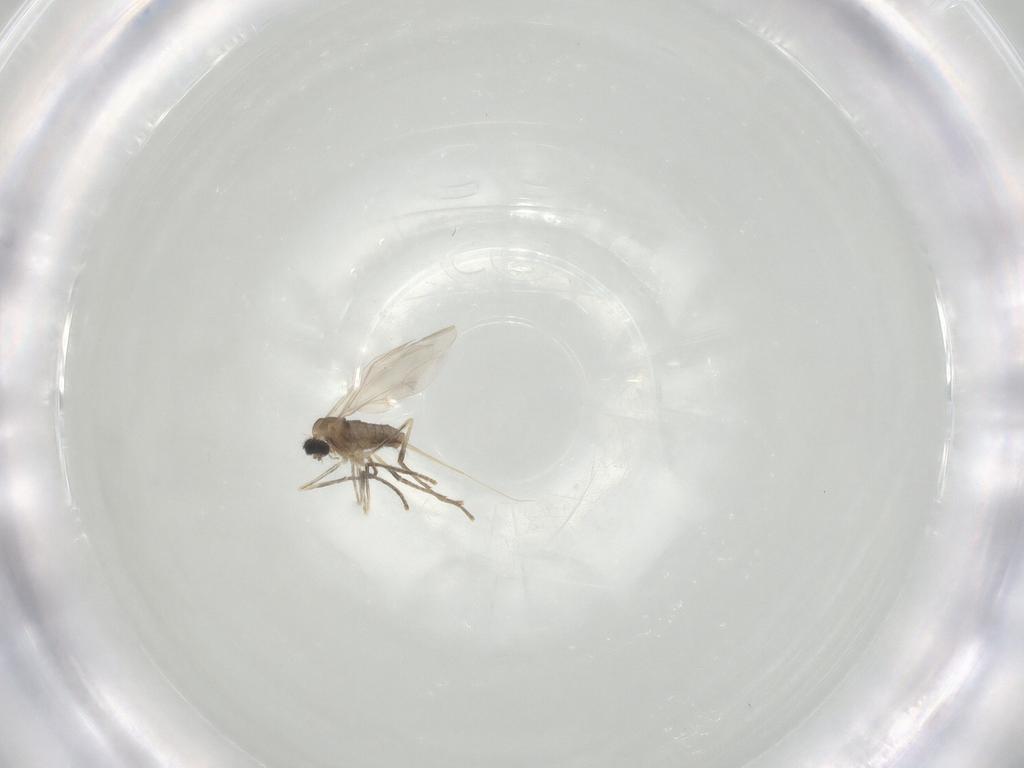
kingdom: Animalia
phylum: Arthropoda
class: Insecta
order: Diptera
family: Cecidomyiidae
